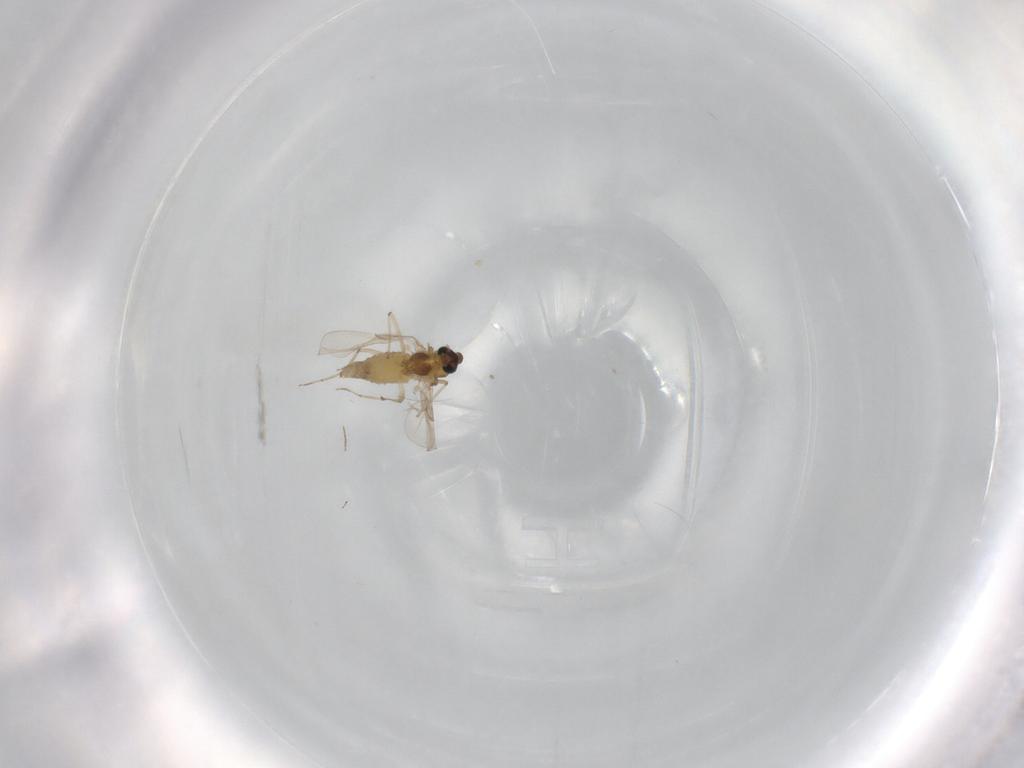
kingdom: Animalia
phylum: Arthropoda
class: Insecta
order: Diptera
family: Chironomidae
